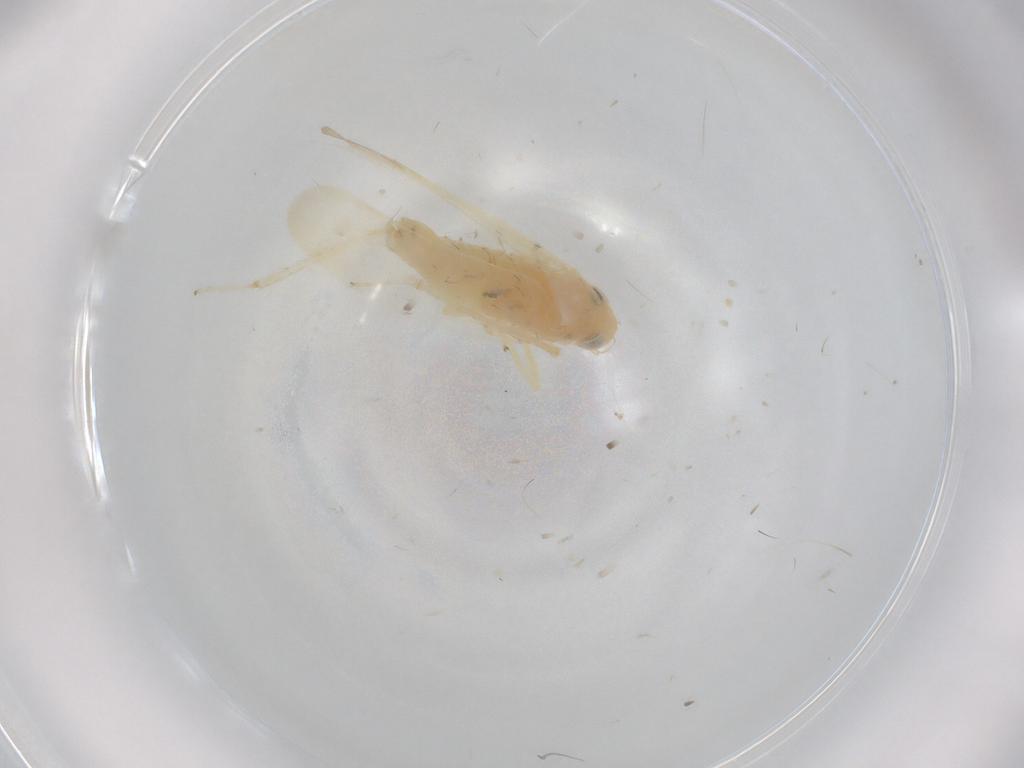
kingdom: Animalia
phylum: Arthropoda
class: Insecta
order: Hemiptera
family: Cicadellidae
